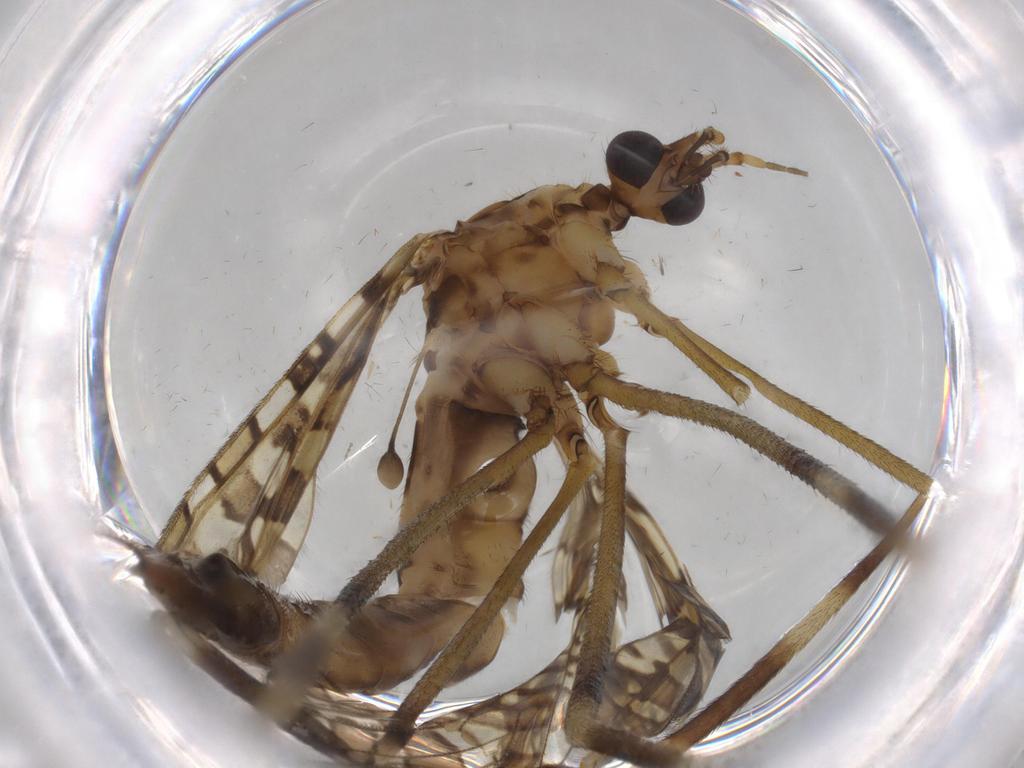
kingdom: Animalia
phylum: Arthropoda
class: Insecta
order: Diptera
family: Limoniidae
